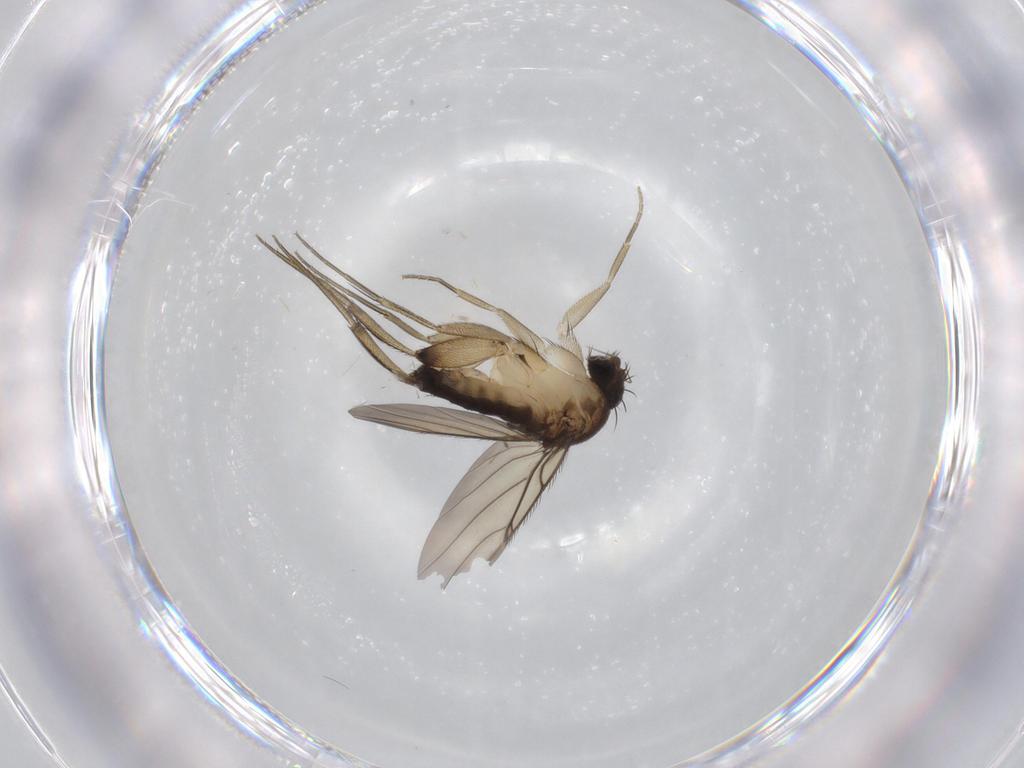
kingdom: Animalia
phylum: Arthropoda
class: Insecta
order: Diptera
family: Phoridae
